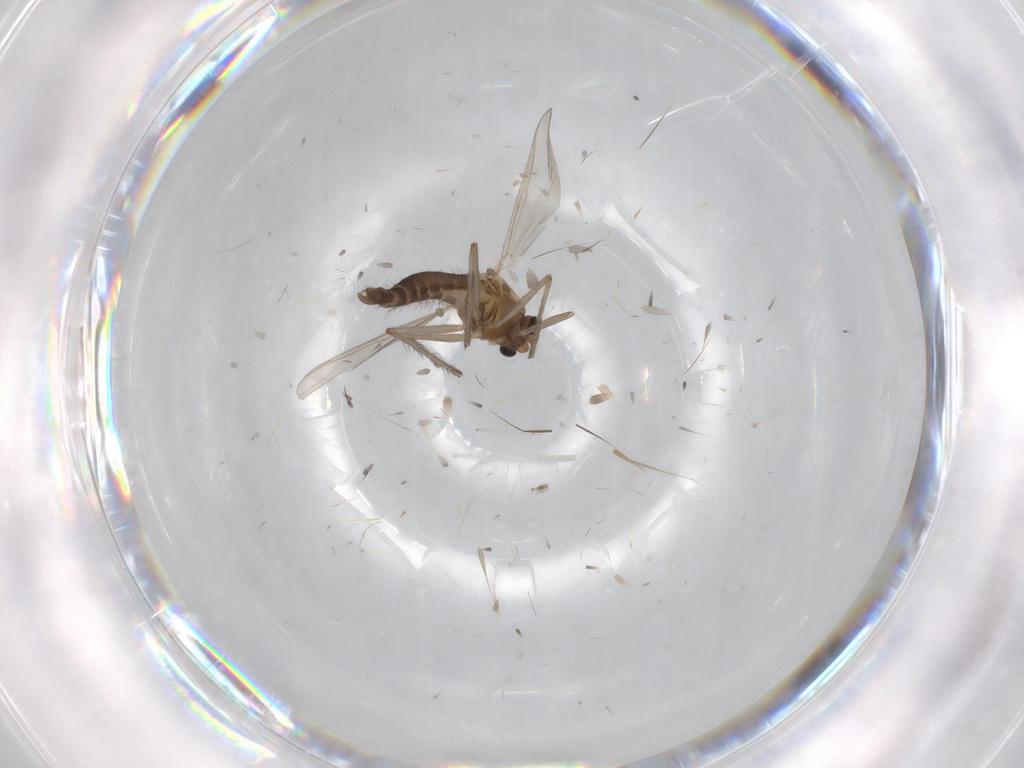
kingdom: Animalia
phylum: Arthropoda
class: Insecta
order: Diptera
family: Chironomidae
